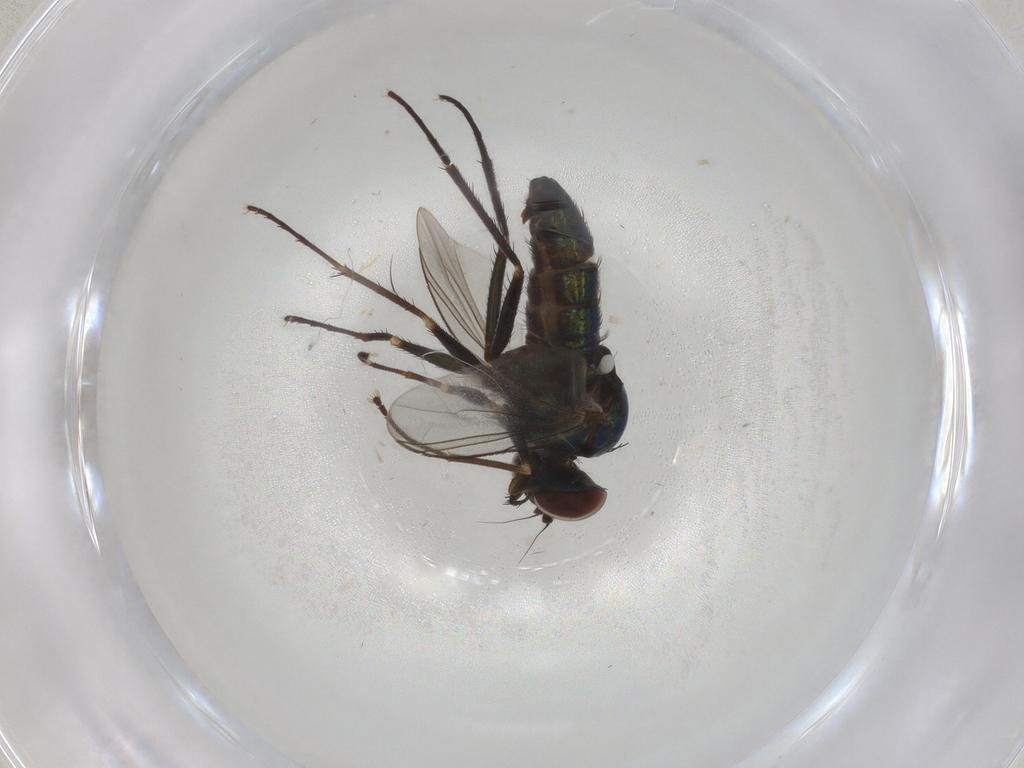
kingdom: Animalia
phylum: Arthropoda
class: Insecta
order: Diptera
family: Dolichopodidae
